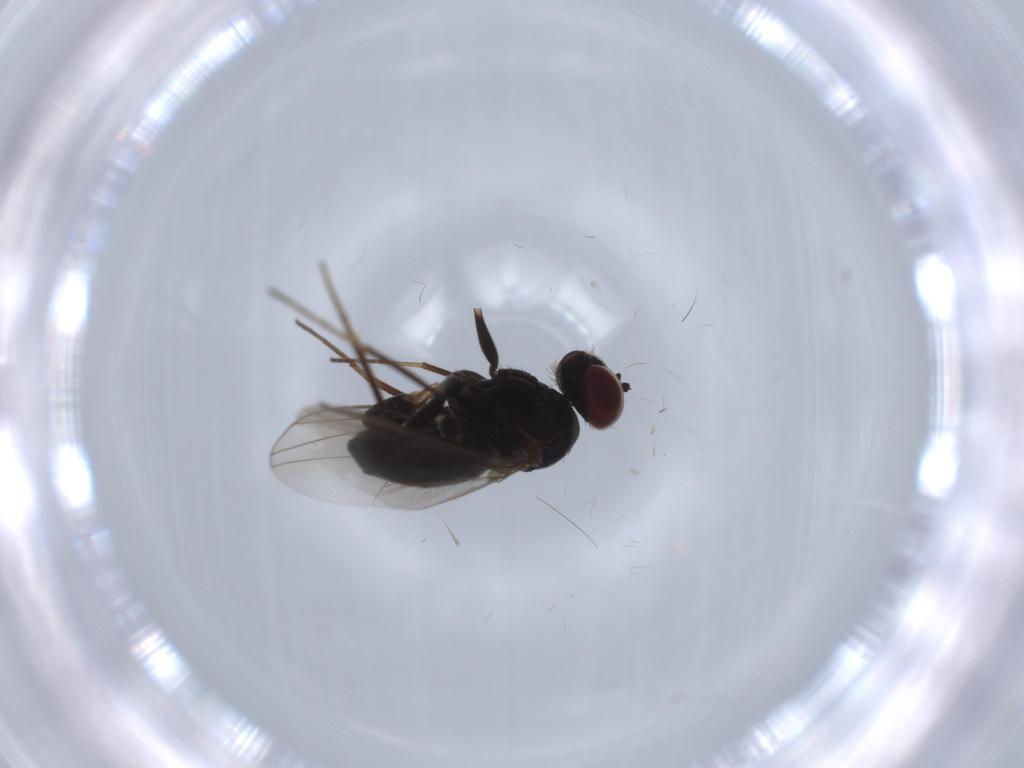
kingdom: Animalia
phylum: Arthropoda
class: Insecta
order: Diptera
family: Dolichopodidae
